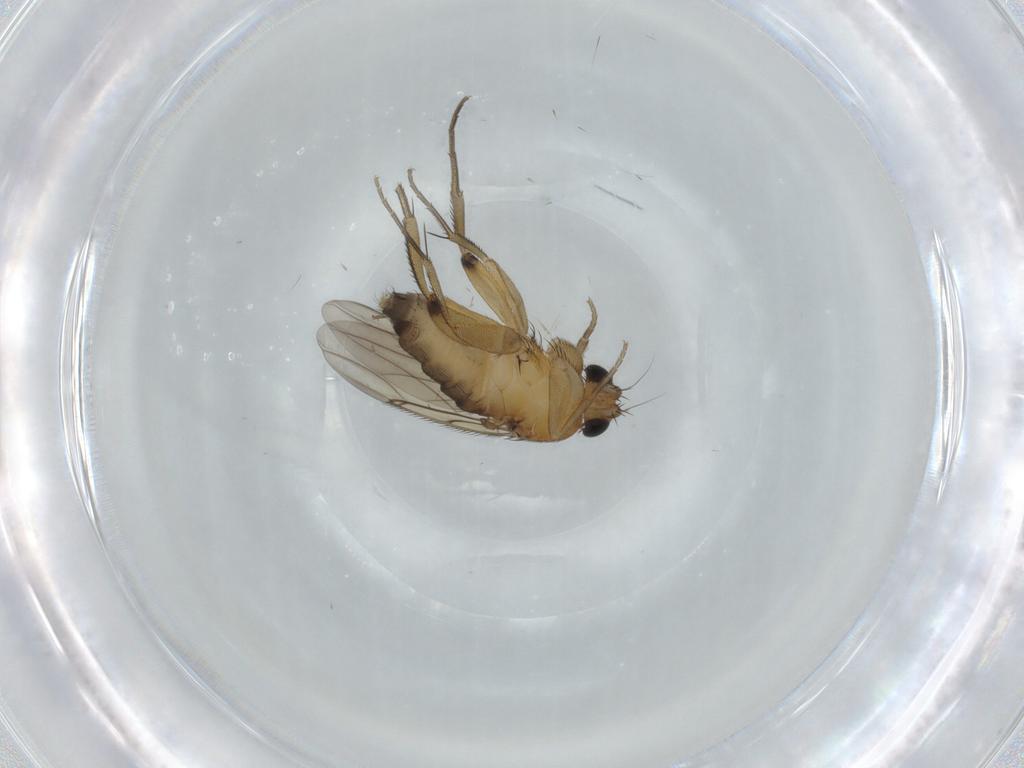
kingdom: Animalia
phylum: Arthropoda
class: Insecta
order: Diptera
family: Phoridae
